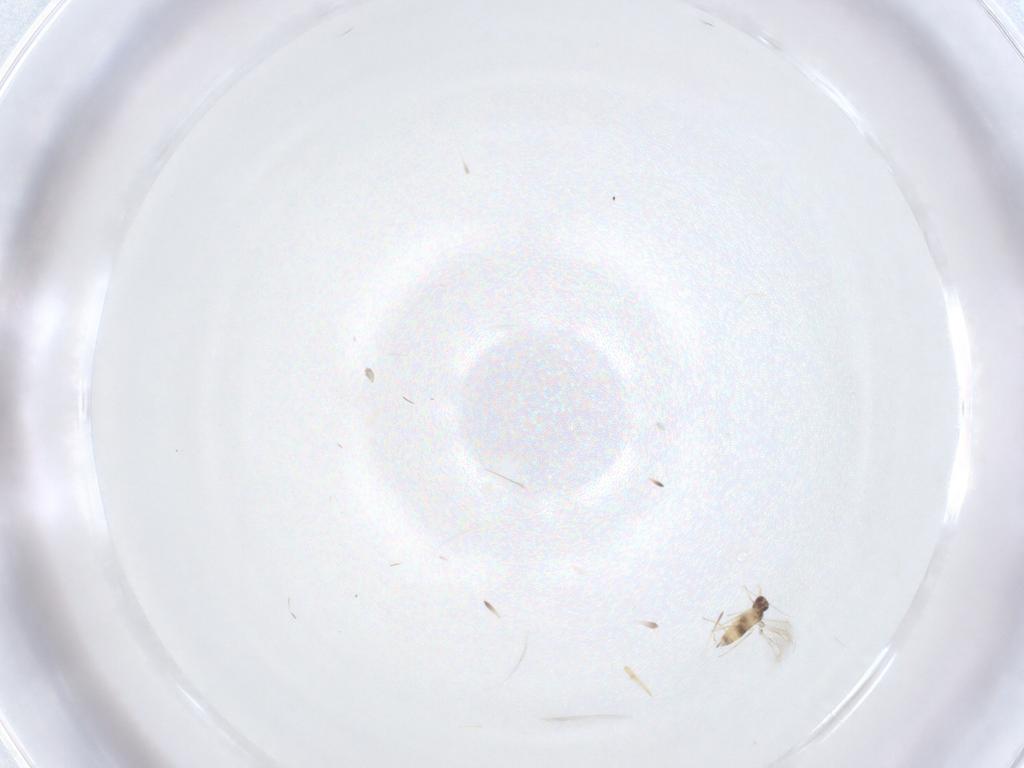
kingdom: Animalia
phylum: Arthropoda
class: Insecta
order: Hymenoptera
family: Mymaridae
